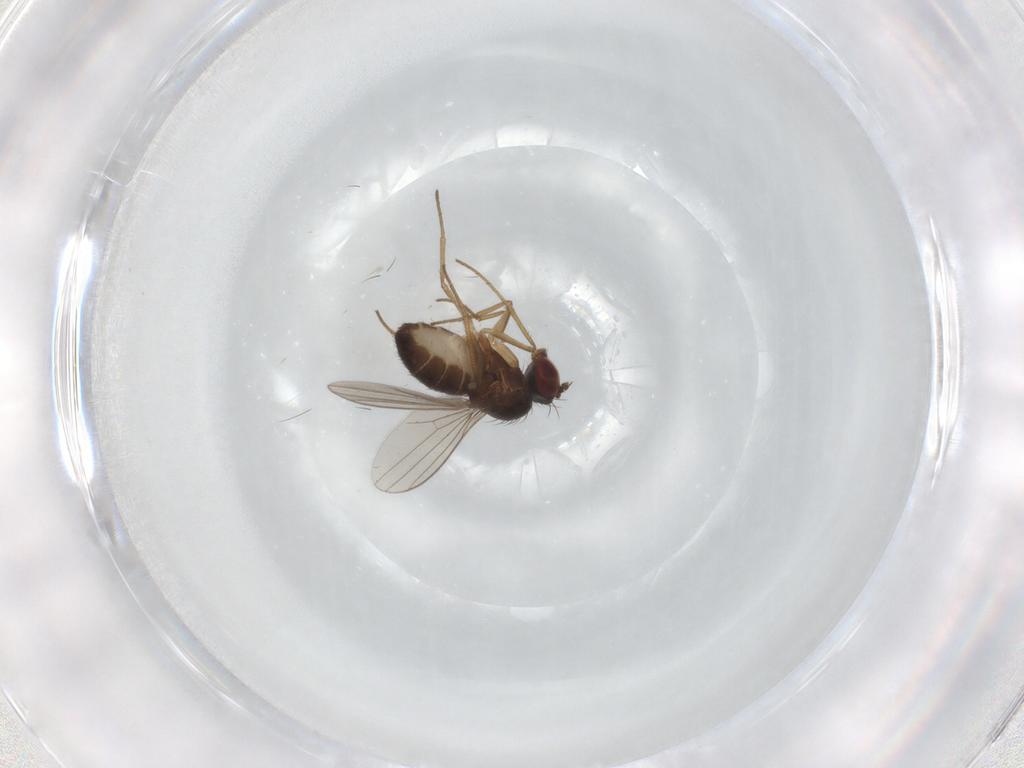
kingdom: Animalia
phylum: Arthropoda
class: Insecta
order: Diptera
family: Dolichopodidae
